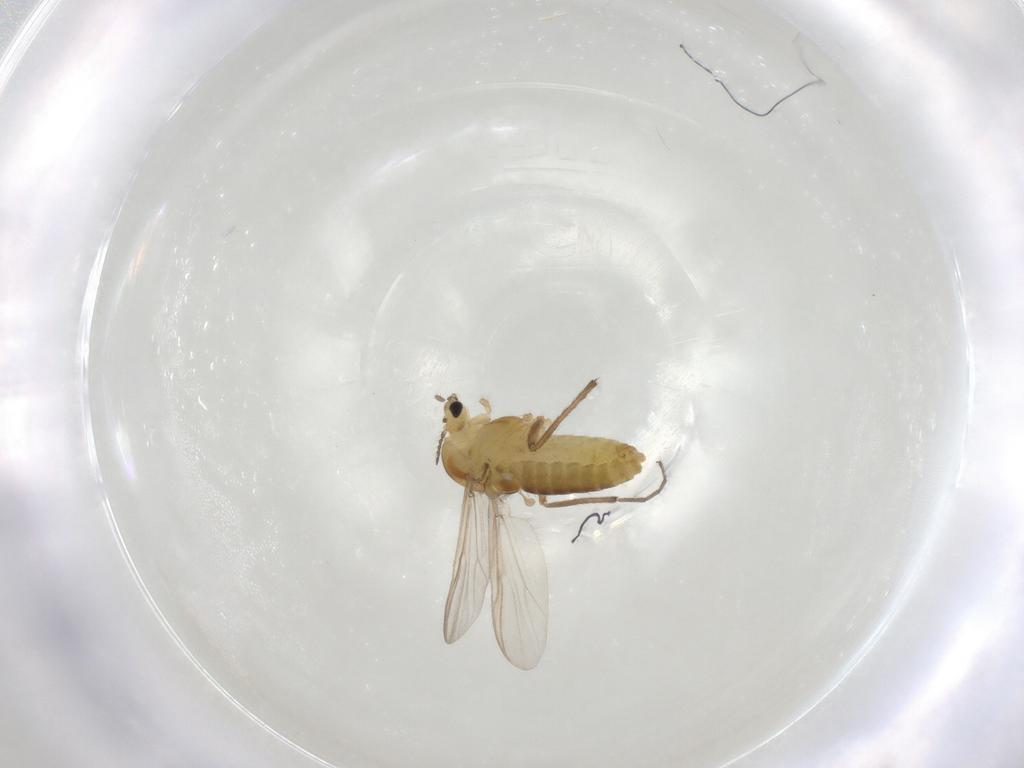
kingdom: Animalia
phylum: Arthropoda
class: Insecta
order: Diptera
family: Chironomidae
